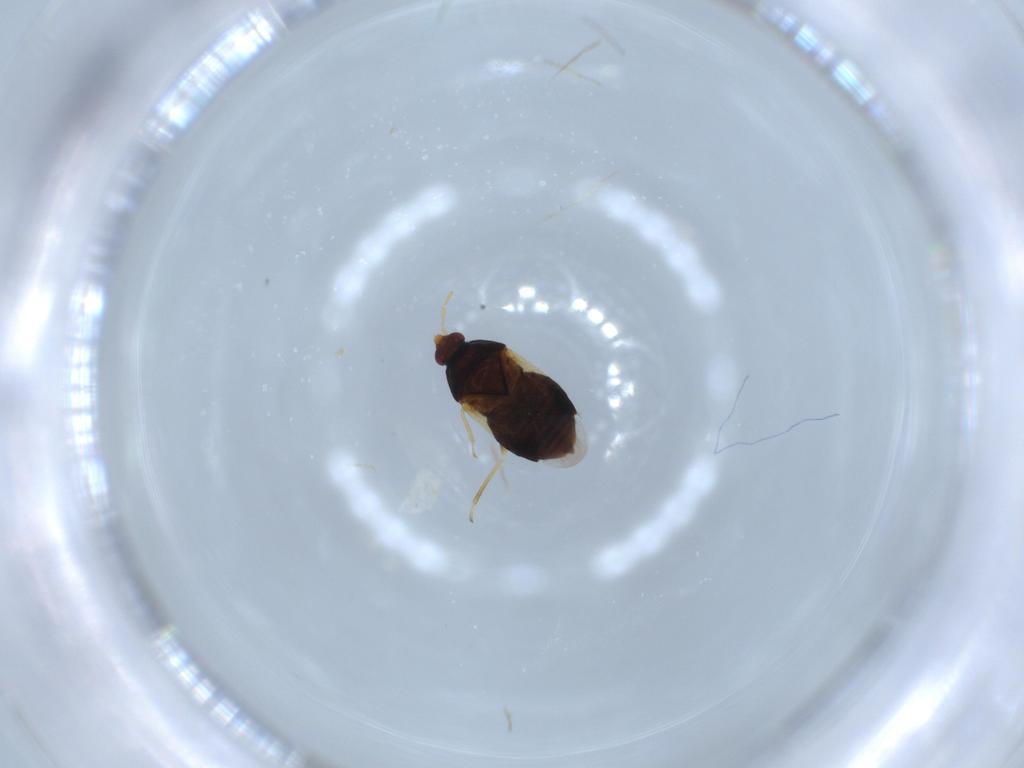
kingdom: Animalia
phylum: Arthropoda
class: Insecta
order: Hemiptera
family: Anthocoridae
